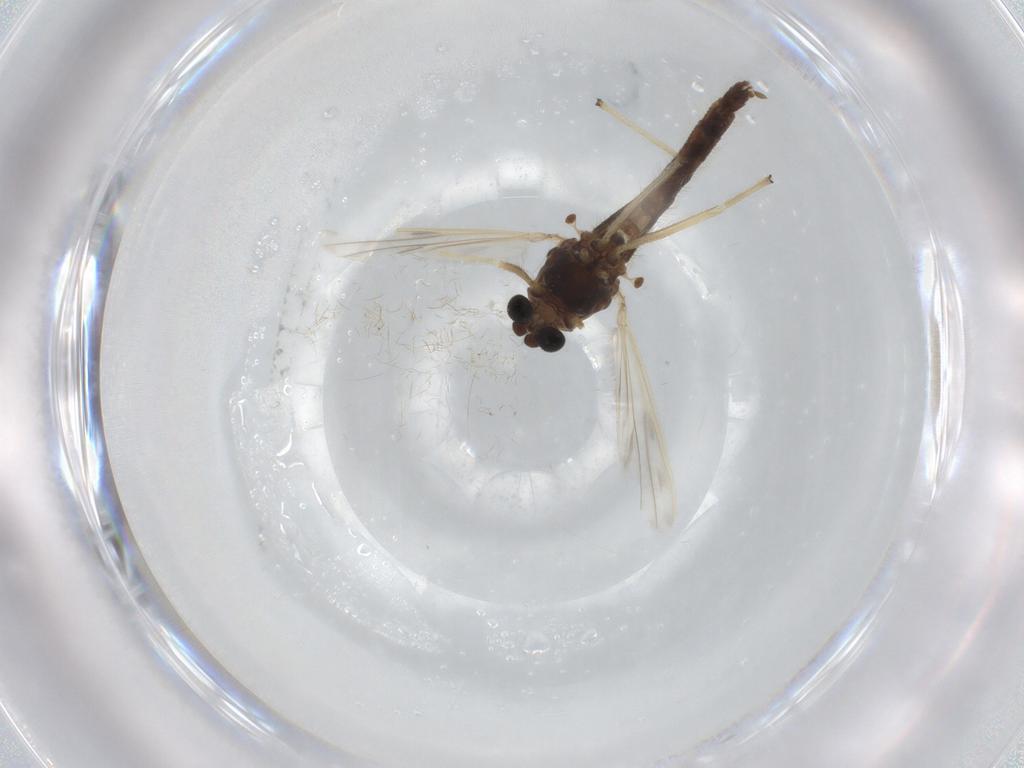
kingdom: Animalia
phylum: Arthropoda
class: Insecta
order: Diptera
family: Chironomidae
